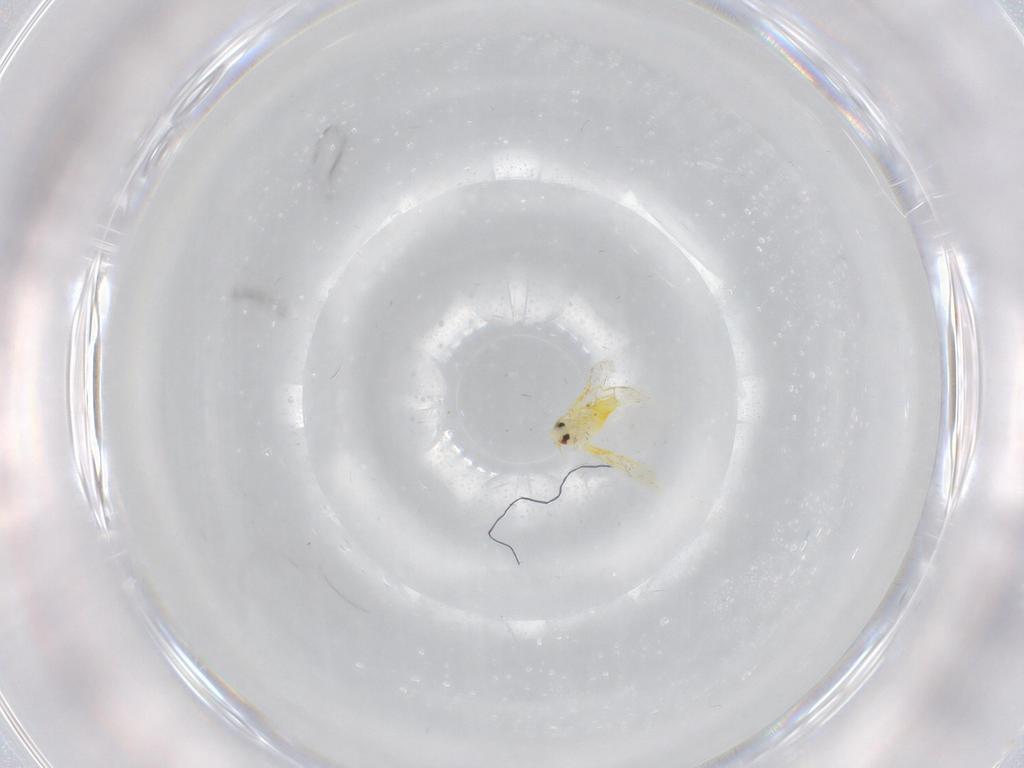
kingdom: Animalia
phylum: Arthropoda
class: Insecta
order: Hemiptera
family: Aleyrodidae
